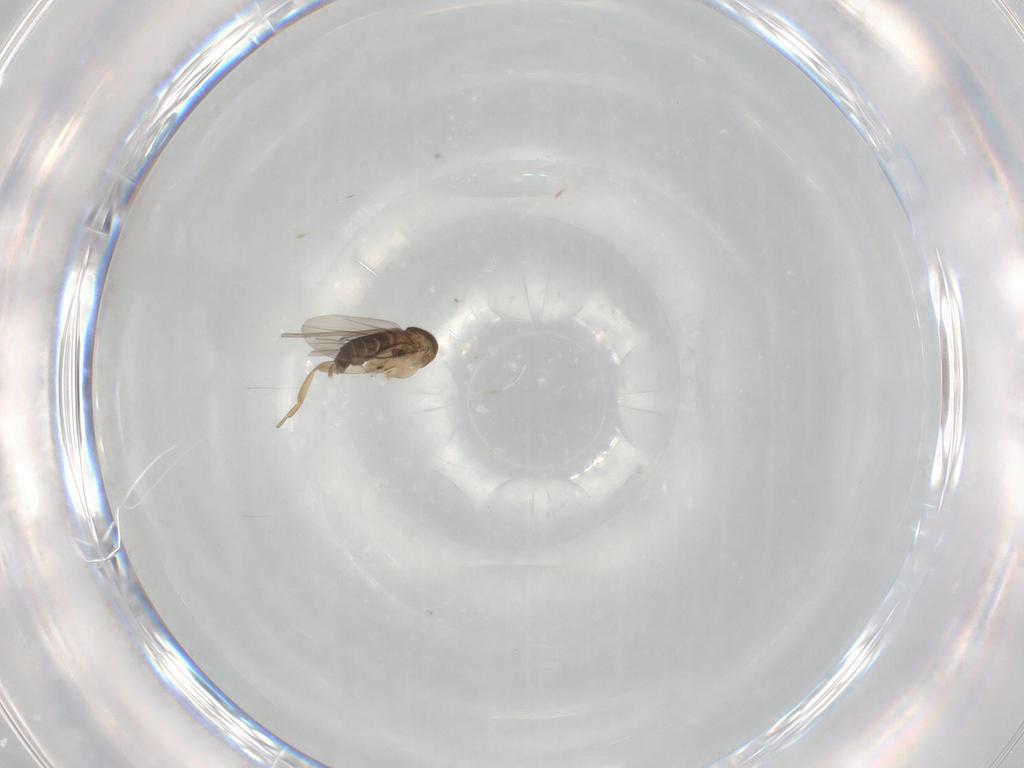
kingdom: Animalia
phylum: Arthropoda
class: Insecta
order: Diptera
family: Phoridae
